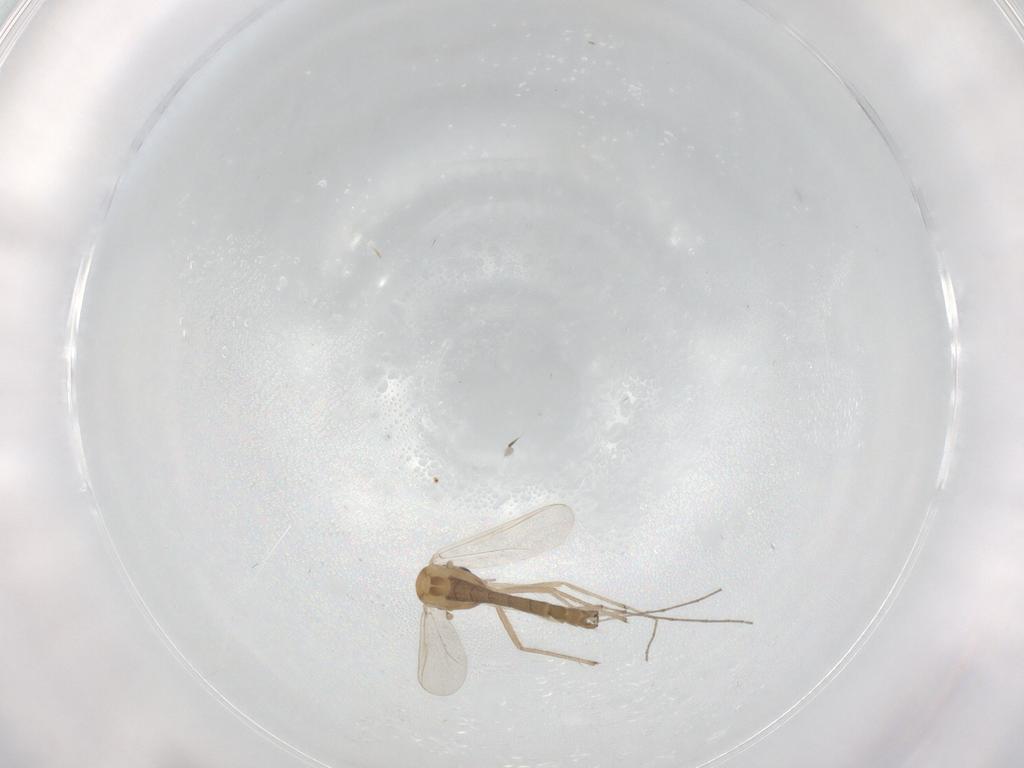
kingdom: Animalia
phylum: Arthropoda
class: Insecta
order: Diptera
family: Chironomidae
